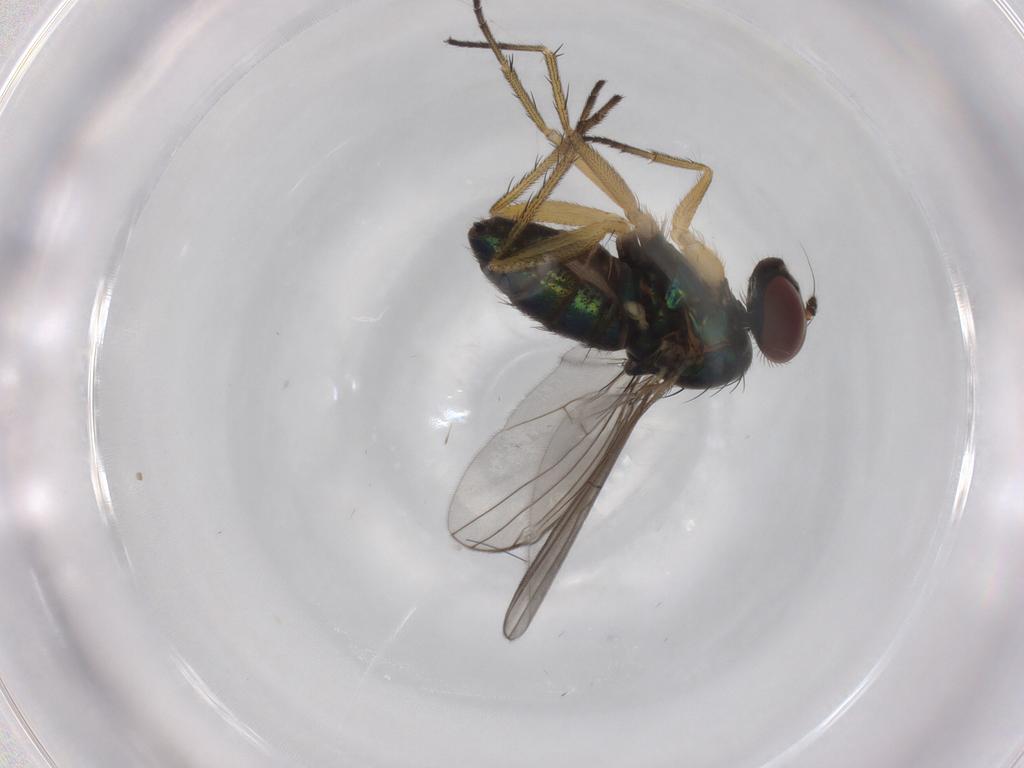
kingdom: Animalia
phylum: Arthropoda
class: Insecta
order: Diptera
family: Dolichopodidae
